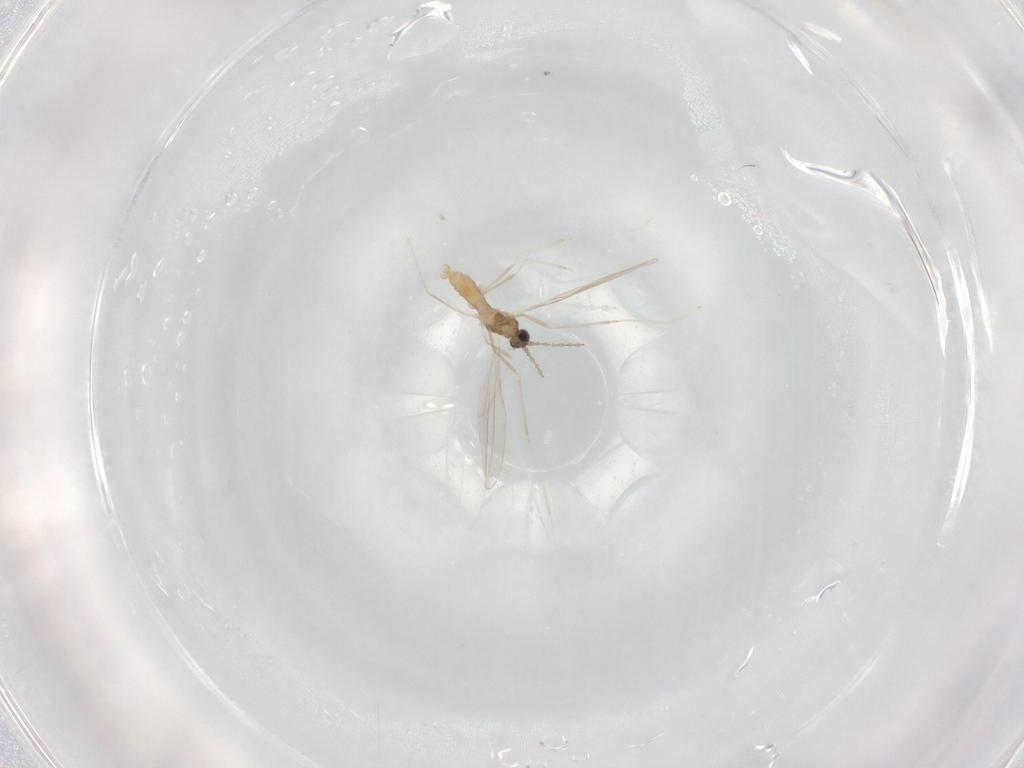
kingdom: Animalia
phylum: Arthropoda
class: Insecta
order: Diptera
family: Cecidomyiidae
